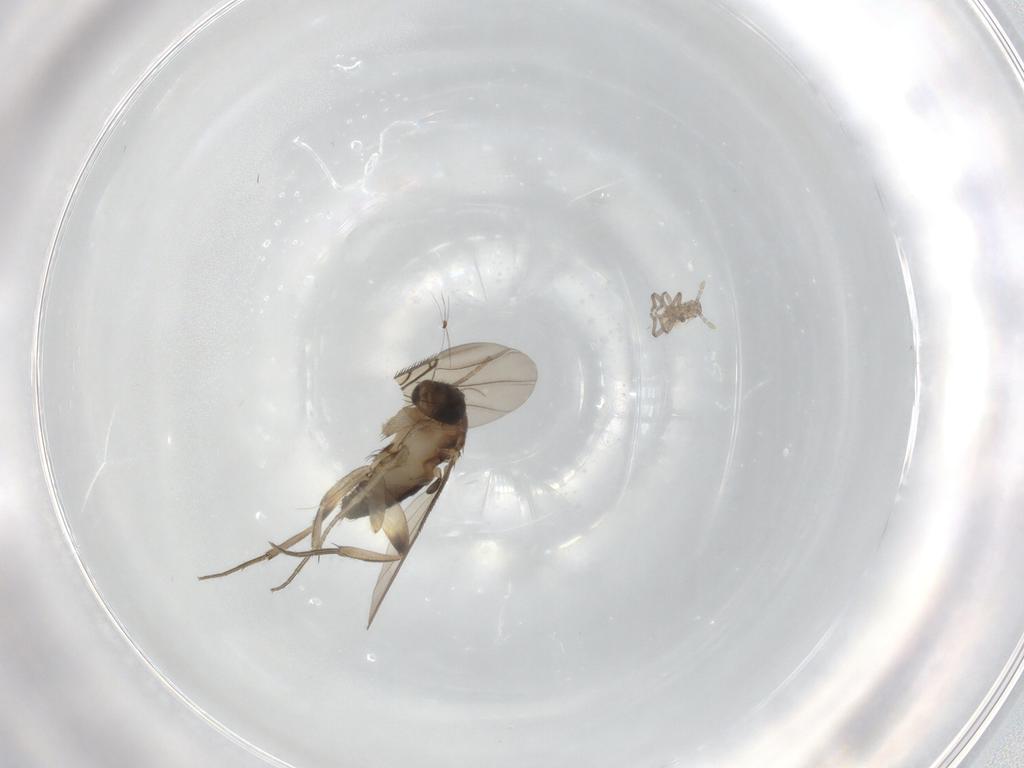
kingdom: Animalia
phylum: Arthropoda
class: Insecta
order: Diptera
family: Phoridae
